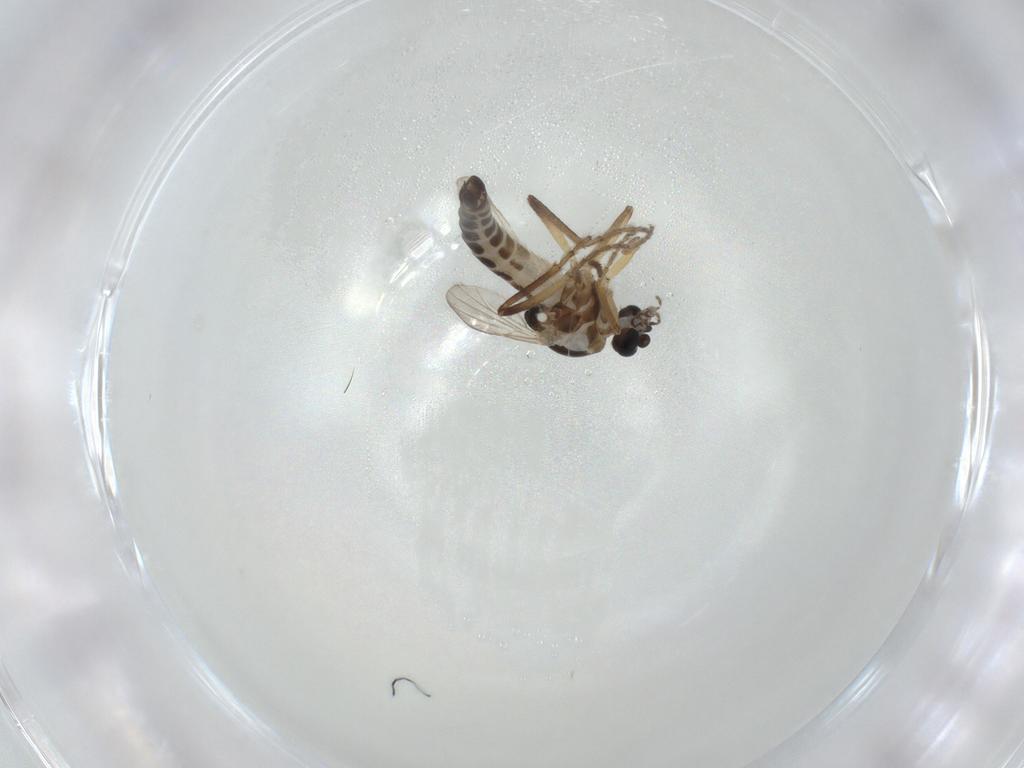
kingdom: Animalia
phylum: Arthropoda
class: Insecta
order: Diptera
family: Ceratopogonidae
